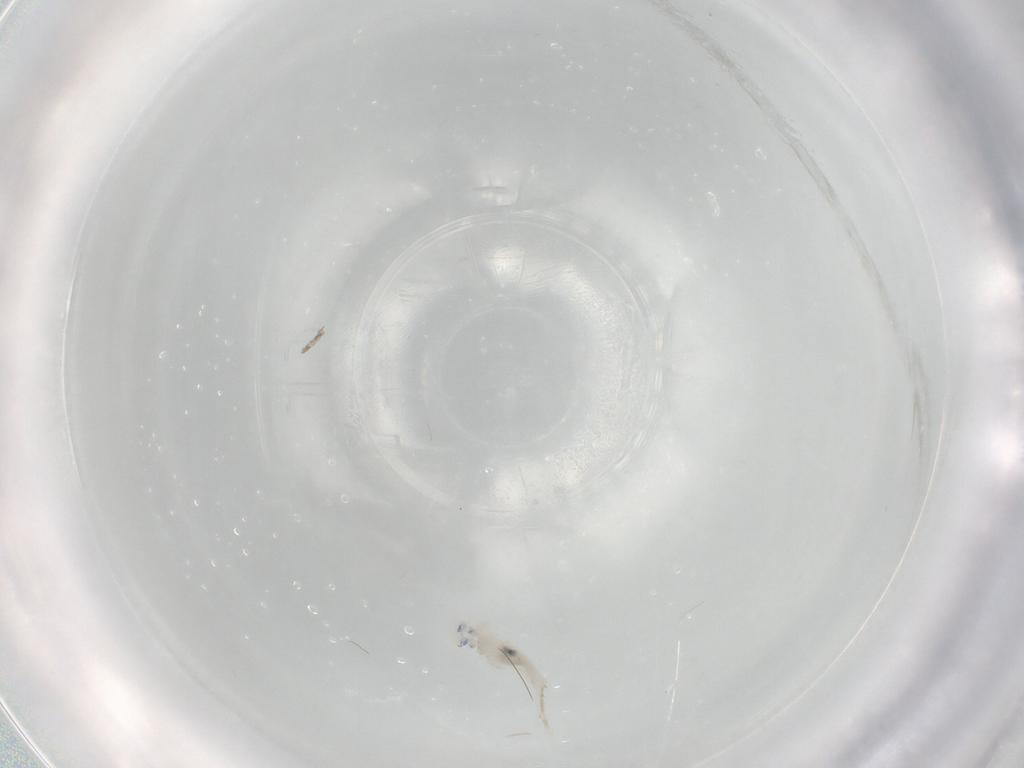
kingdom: Animalia
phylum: Arthropoda
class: Collembola
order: Entomobryomorpha
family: Entomobryidae
